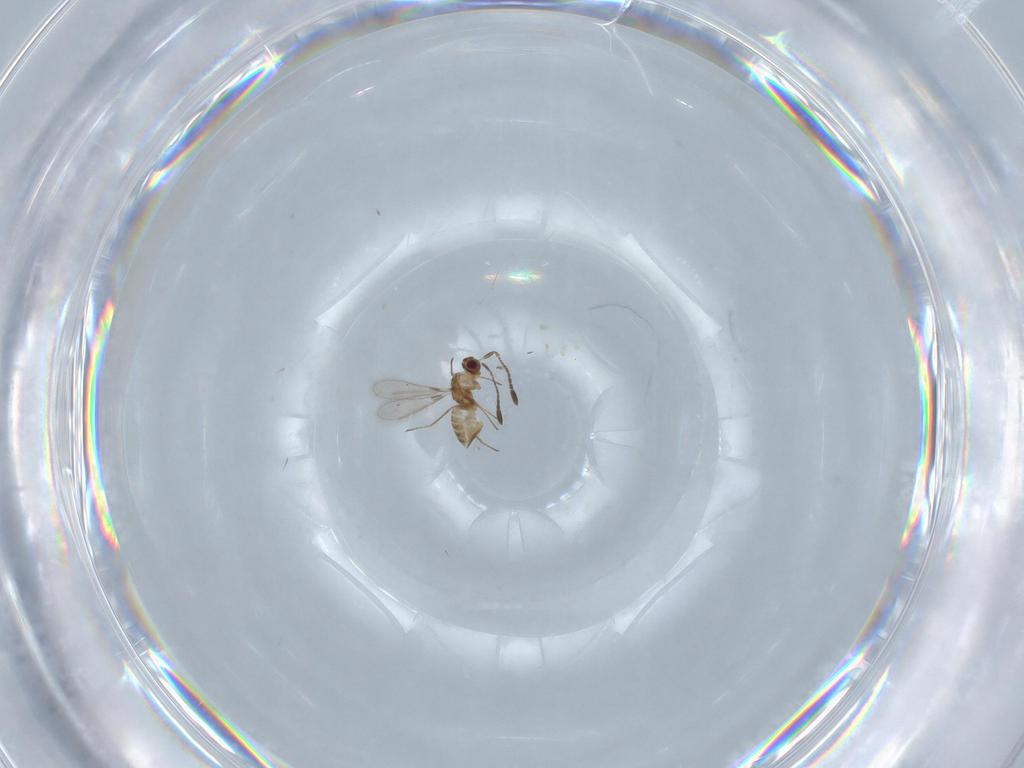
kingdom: Animalia
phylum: Arthropoda
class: Insecta
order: Hymenoptera
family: Mymaridae
